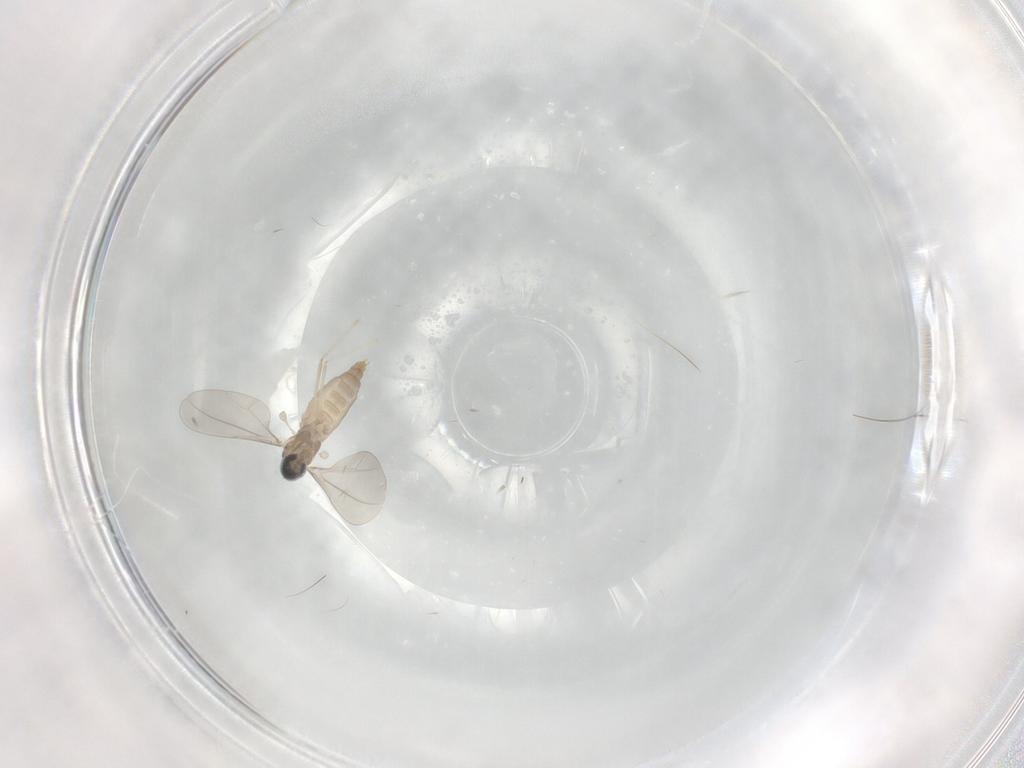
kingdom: Animalia
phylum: Arthropoda
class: Insecta
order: Diptera
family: Cecidomyiidae
